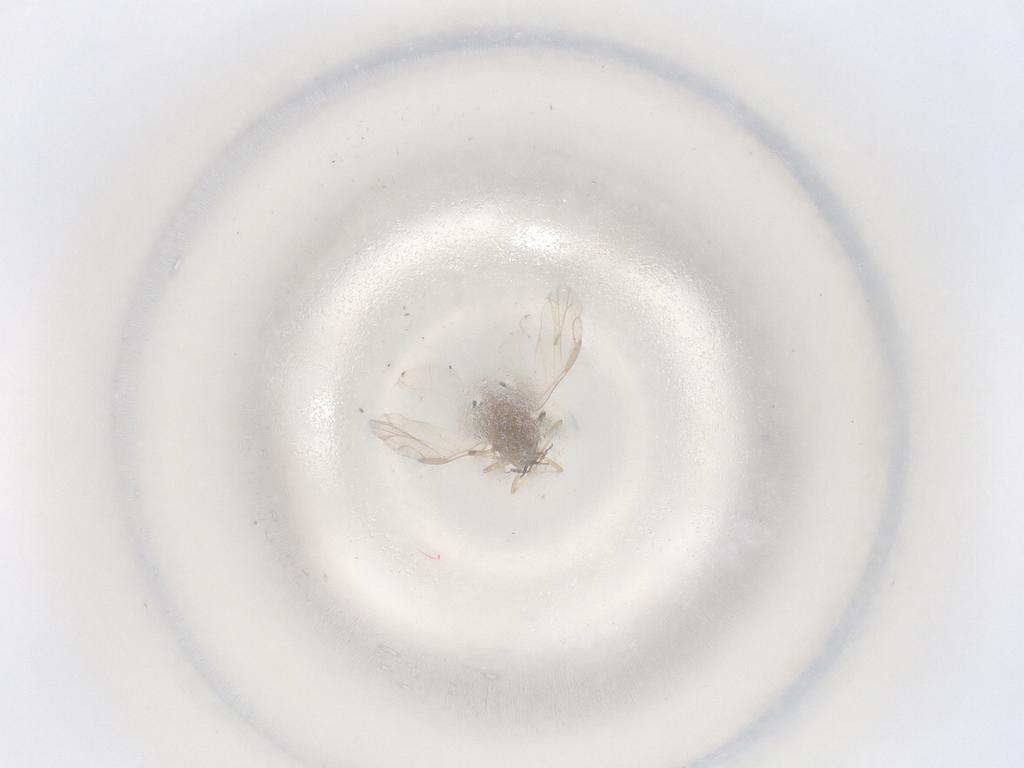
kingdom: Animalia
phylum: Arthropoda
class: Insecta
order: Hemiptera
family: Aphididae
